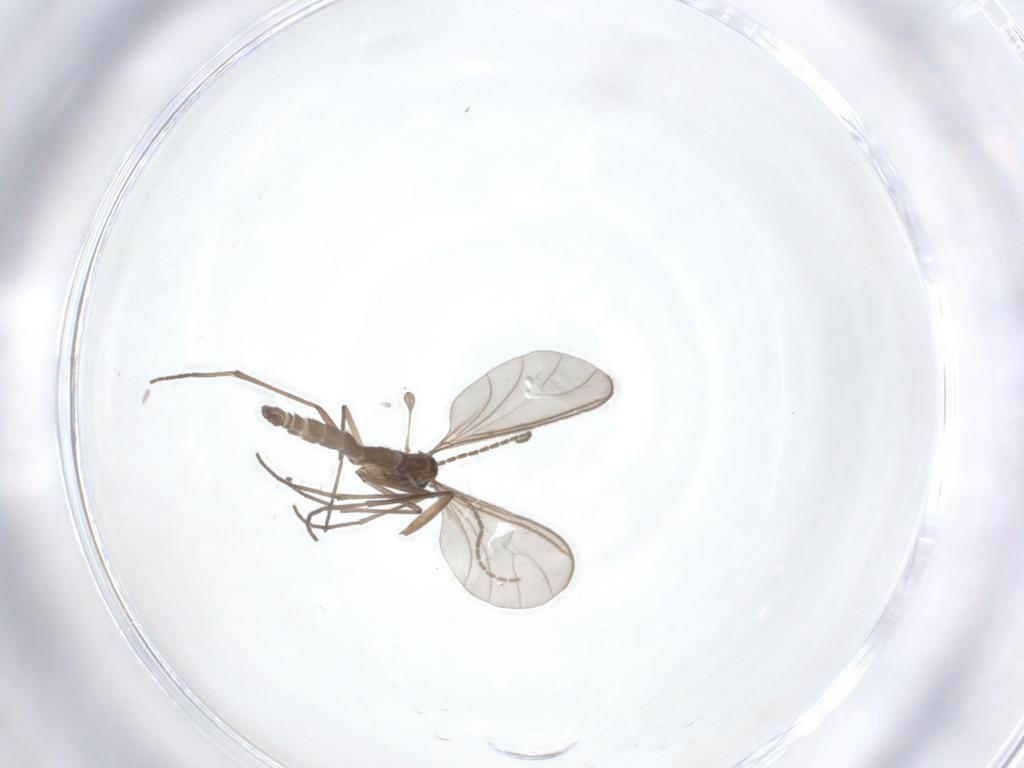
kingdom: Animalia
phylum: Arthropoda
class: Insecta
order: Diptera
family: Sciaridae
